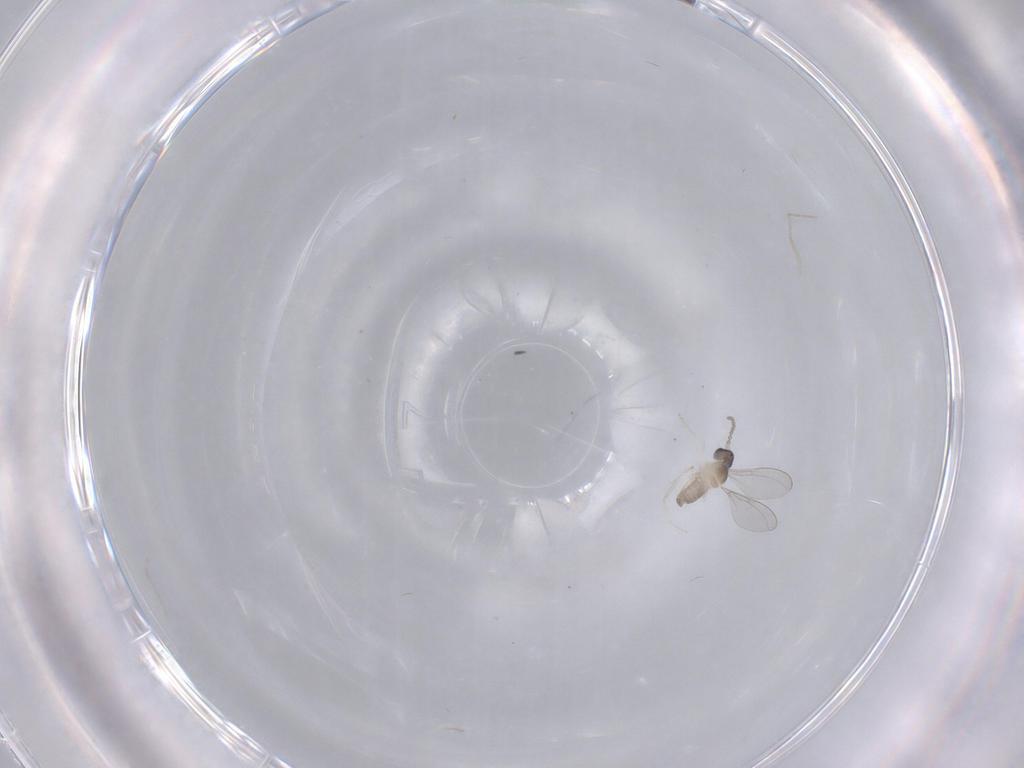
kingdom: Animalia
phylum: Arthropoda
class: Insecta
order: Diptera
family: Cecidomyiidae
